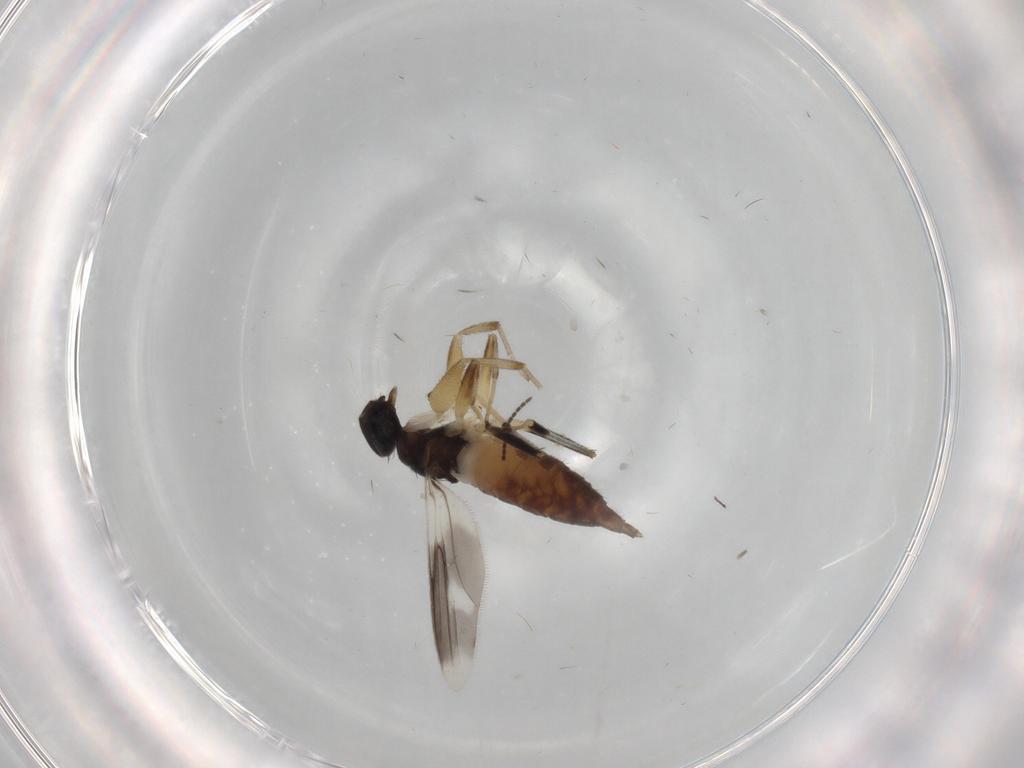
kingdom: Animalia
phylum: Arthropoda
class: Insecta
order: Diptera
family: Hybotidae
